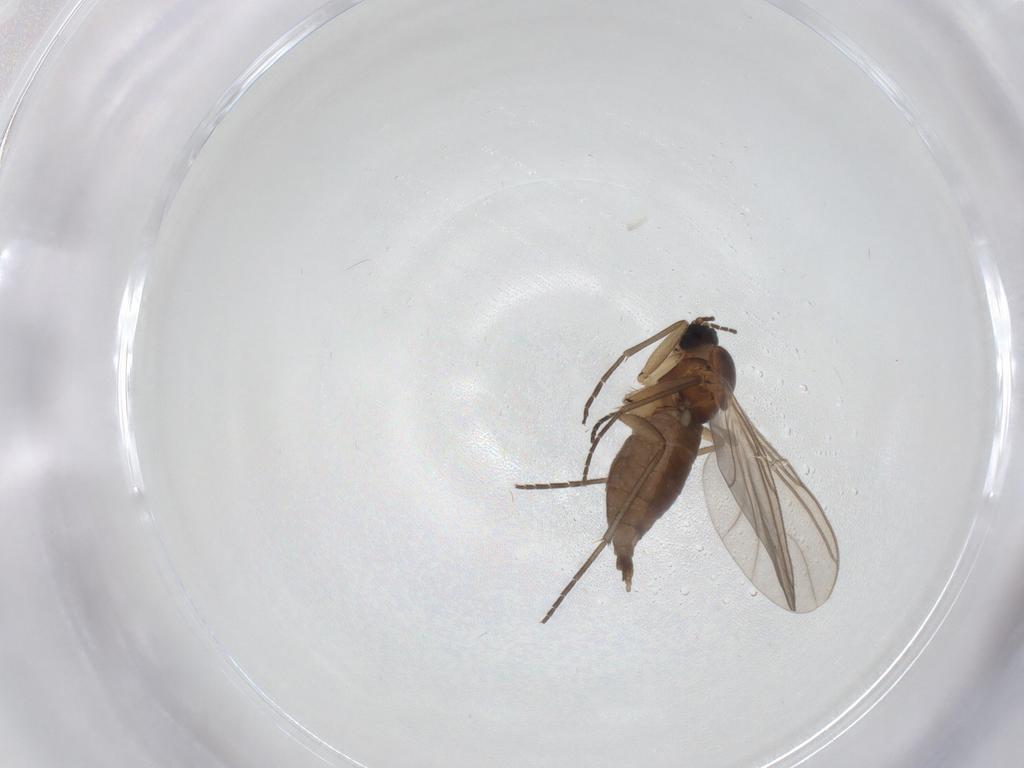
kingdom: Animalia
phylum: Arthropoda
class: Insecta
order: Diptera
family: Sciaridae
